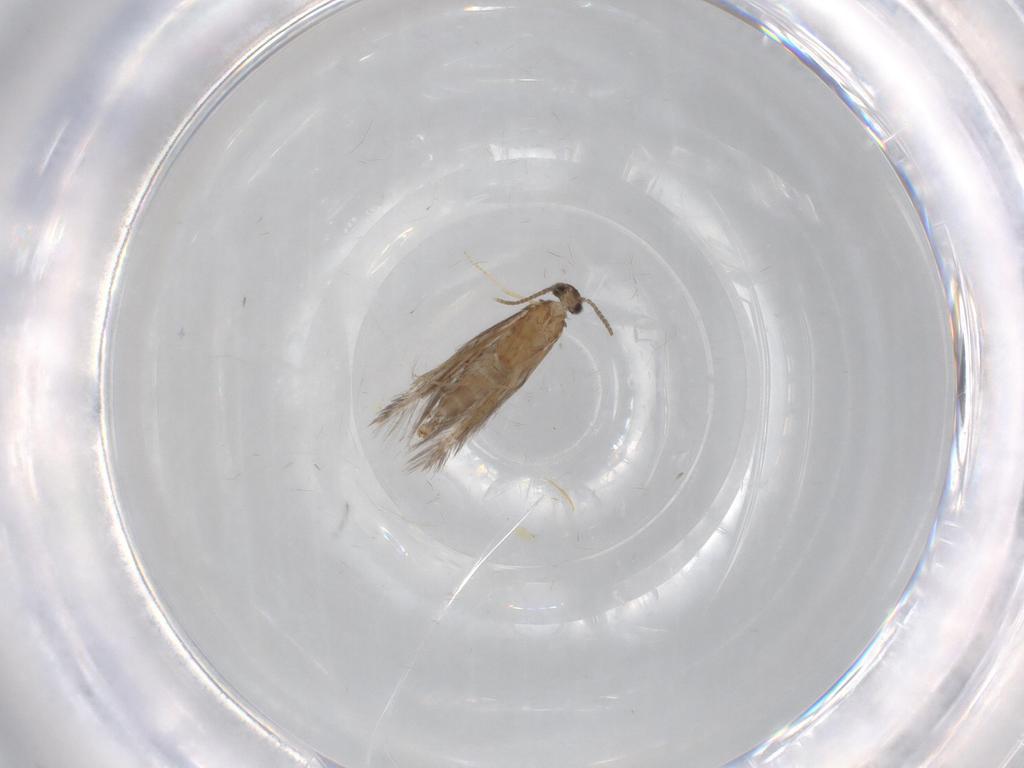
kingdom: Animalia
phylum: Arthropoda
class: Insecta
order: Trichoptera
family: Hydroptilidae
